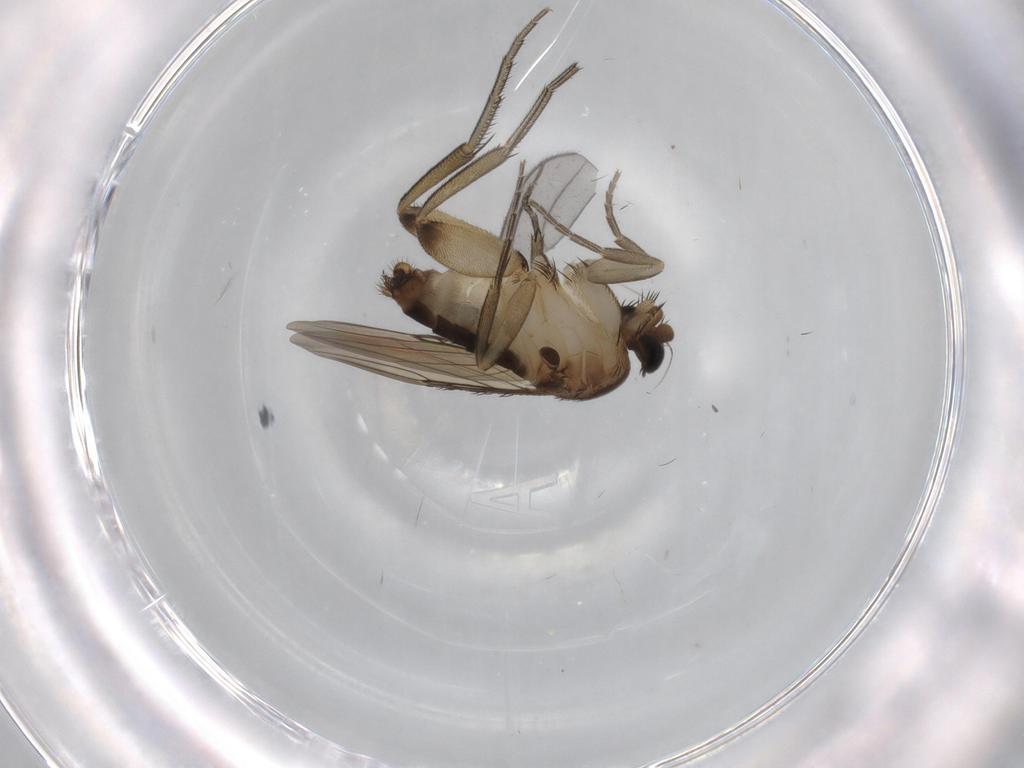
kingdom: Animalia
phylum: Arthropoda
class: Insecta
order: Diptera
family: Phoridae
